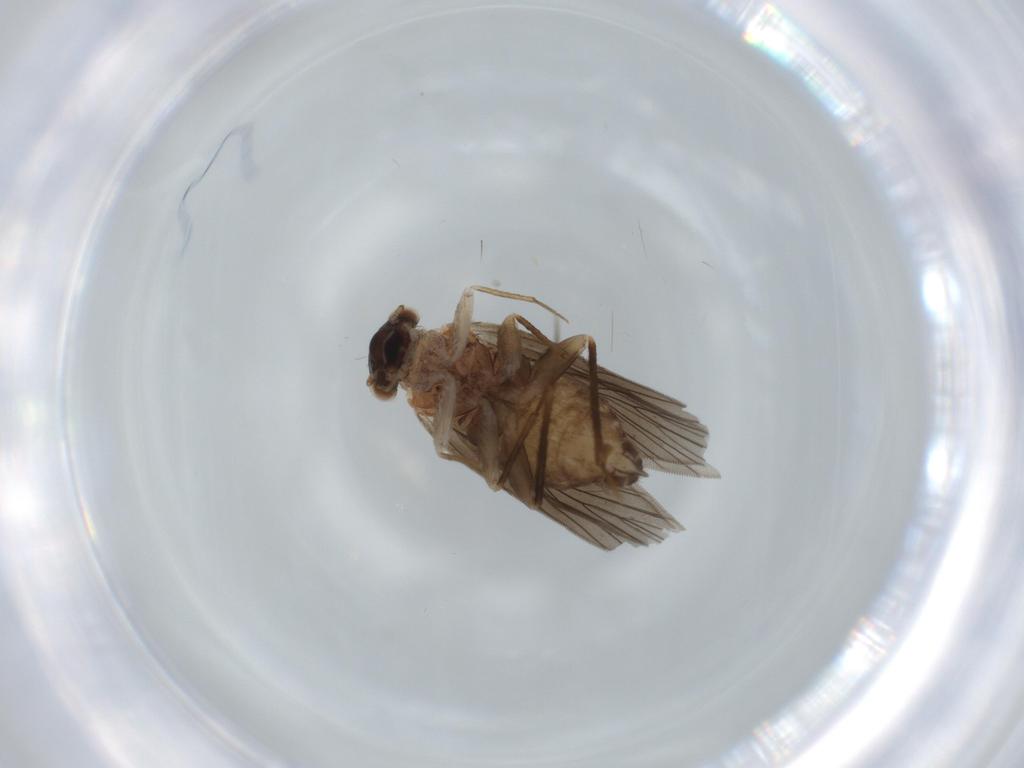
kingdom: Animalia
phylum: Arthropoda
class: Insecta
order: Psocodea
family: Lepidopsocidae
